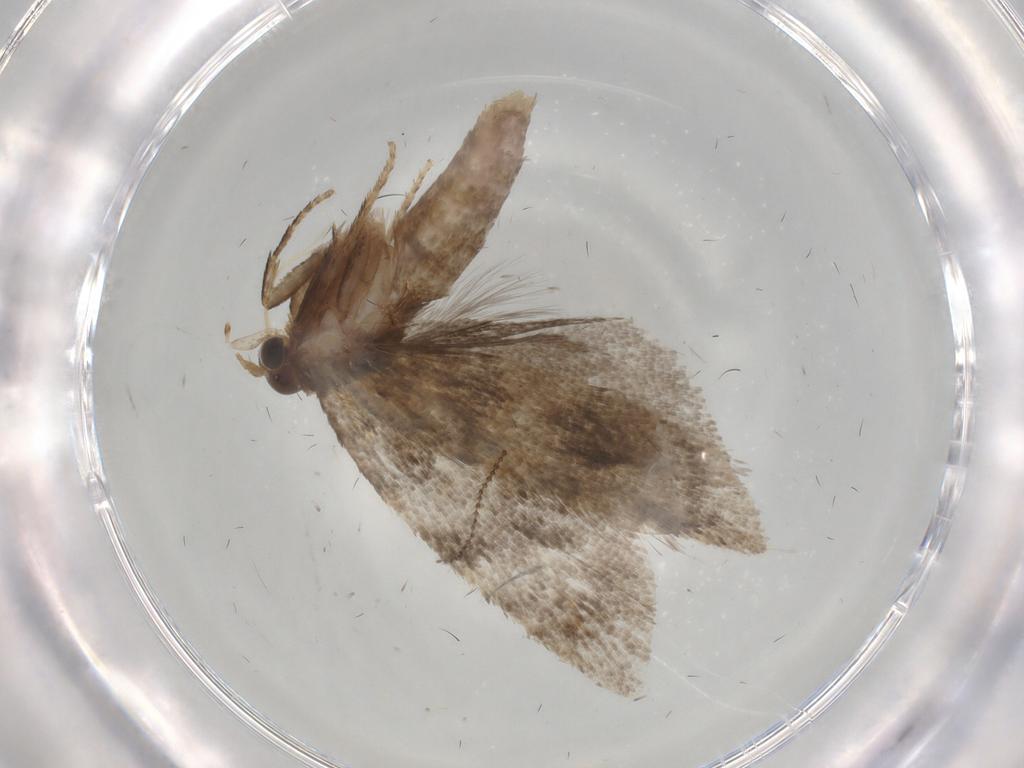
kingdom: Animalia
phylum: Arthropoda
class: Insecta
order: Lepidoptera
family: Tortricidae
